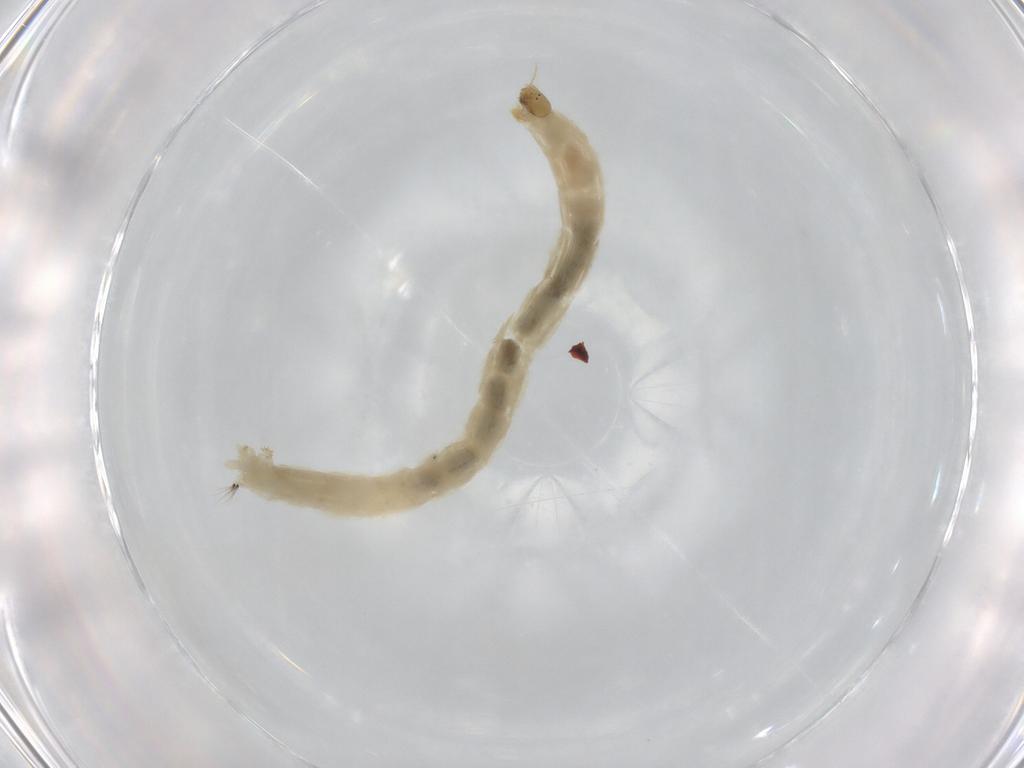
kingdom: Animalia
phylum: Arthropoda
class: Insecta
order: Diptera
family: Chironomidae
